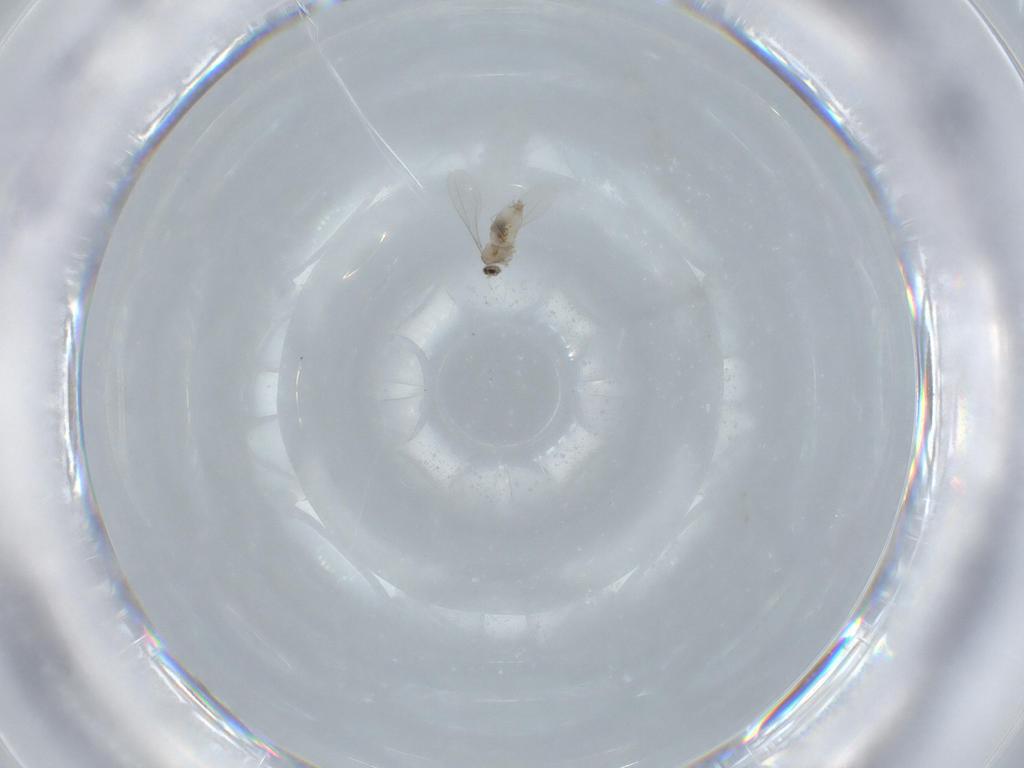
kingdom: Animalia
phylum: Arthropoda
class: Insecta
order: Diptera
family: Cecidomyiidae
